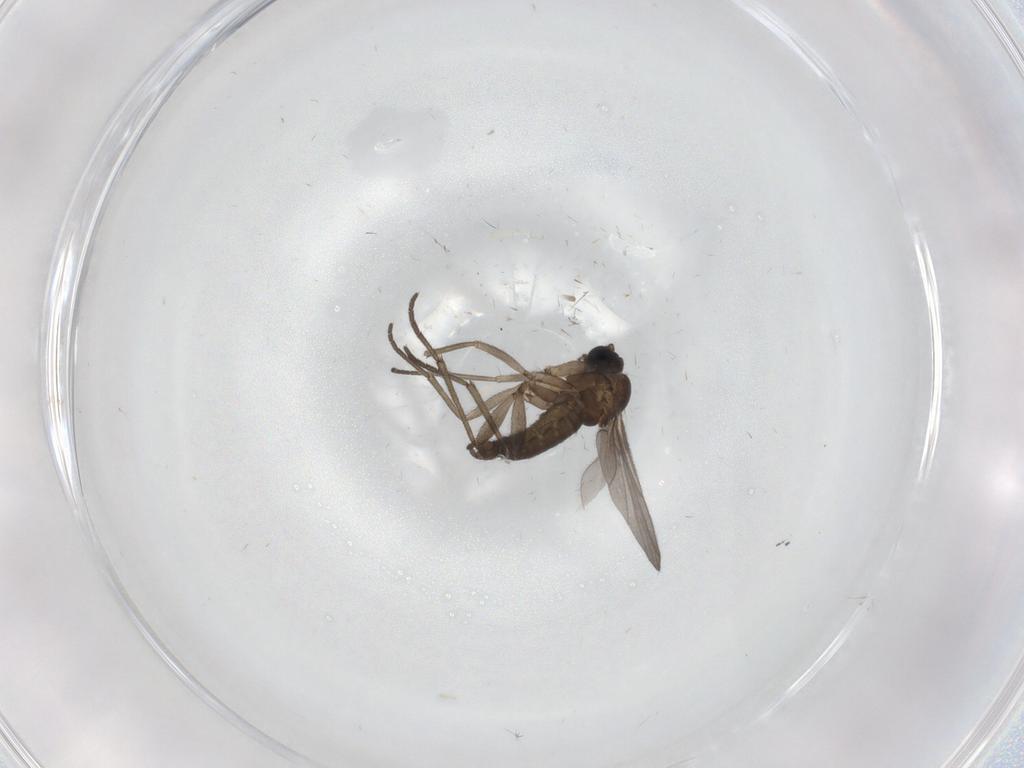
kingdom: Animalia
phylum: Arthropoda
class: Insecta
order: Diptera
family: Sciaridae
